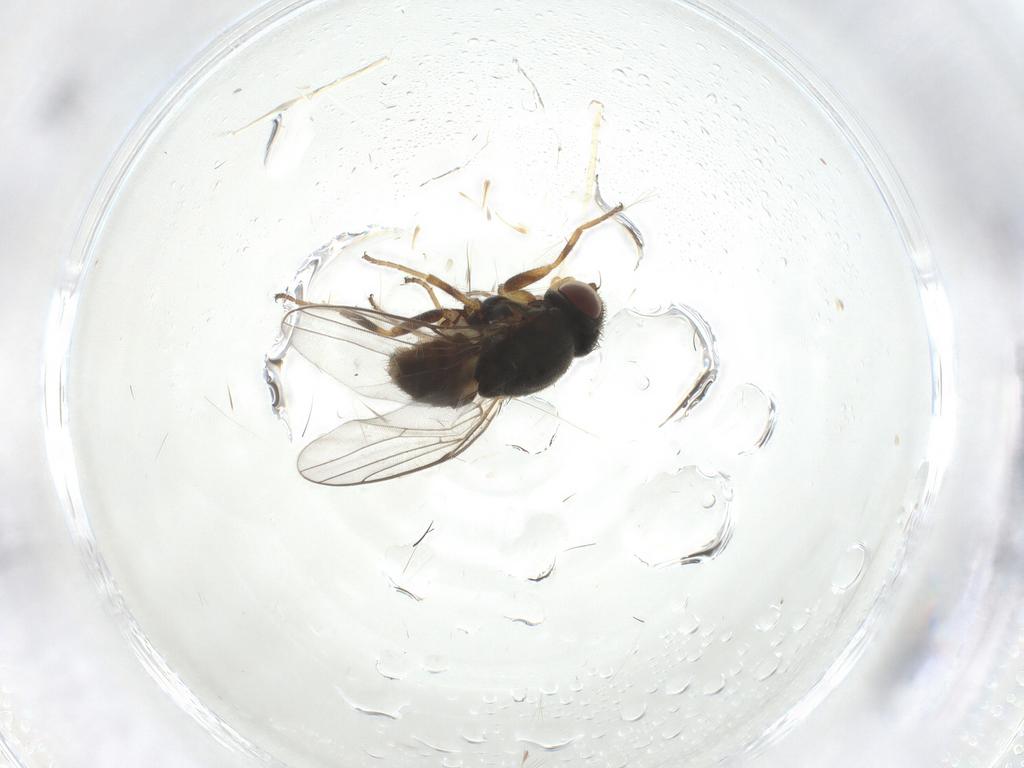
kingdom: Animalia
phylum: Arthropoda
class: Insecta
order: Diptera
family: Chloropidae
